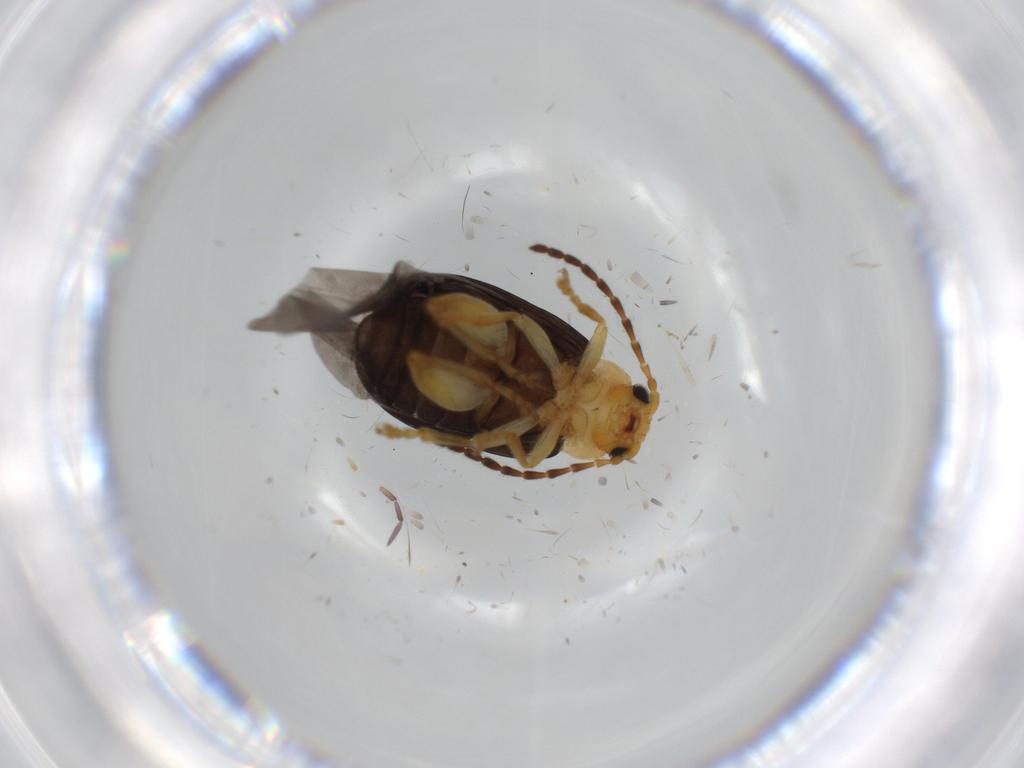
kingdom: Animalia
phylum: Arthropoda
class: Insecta
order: Coleoptera
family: Chrysomelidae
